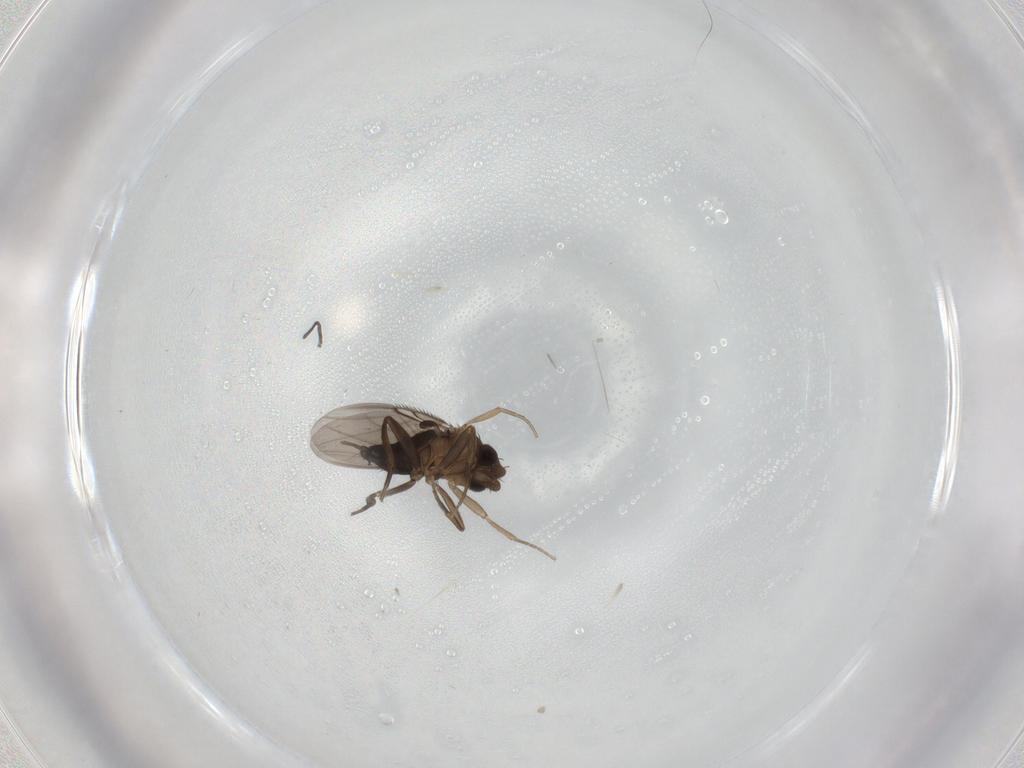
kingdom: Animalia
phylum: Arthropoda
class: Insecta
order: Diptera
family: Phoridae
